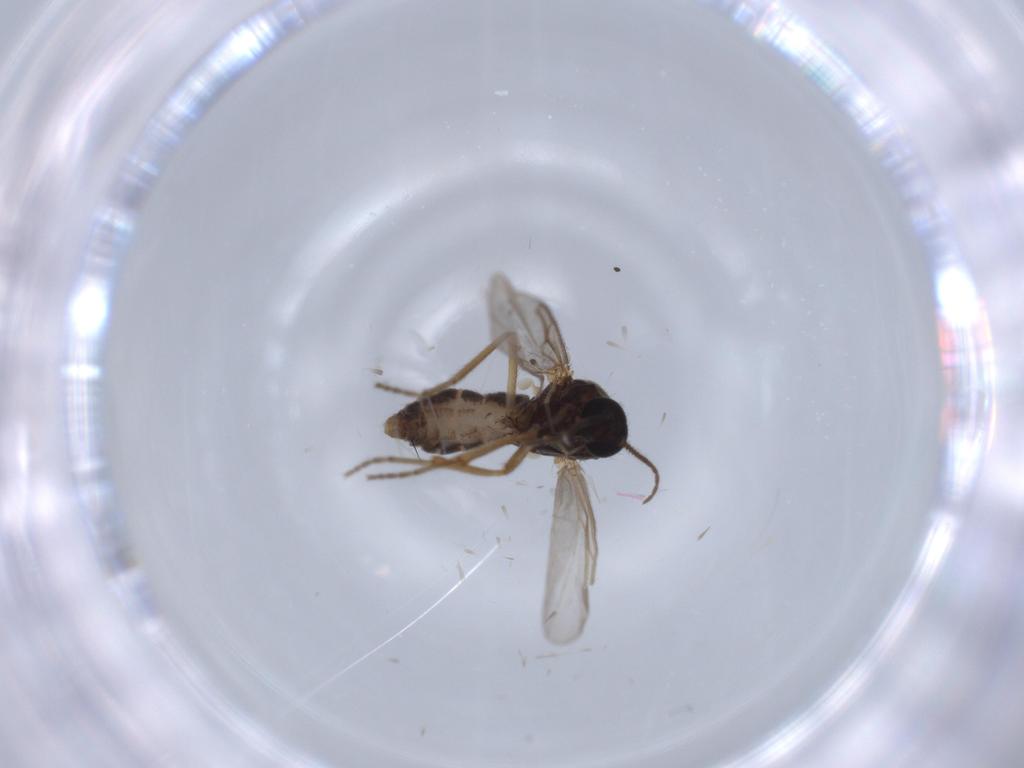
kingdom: Animalia
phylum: Arthropoda
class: Insecta
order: Diptera
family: Ceratopogonidae
